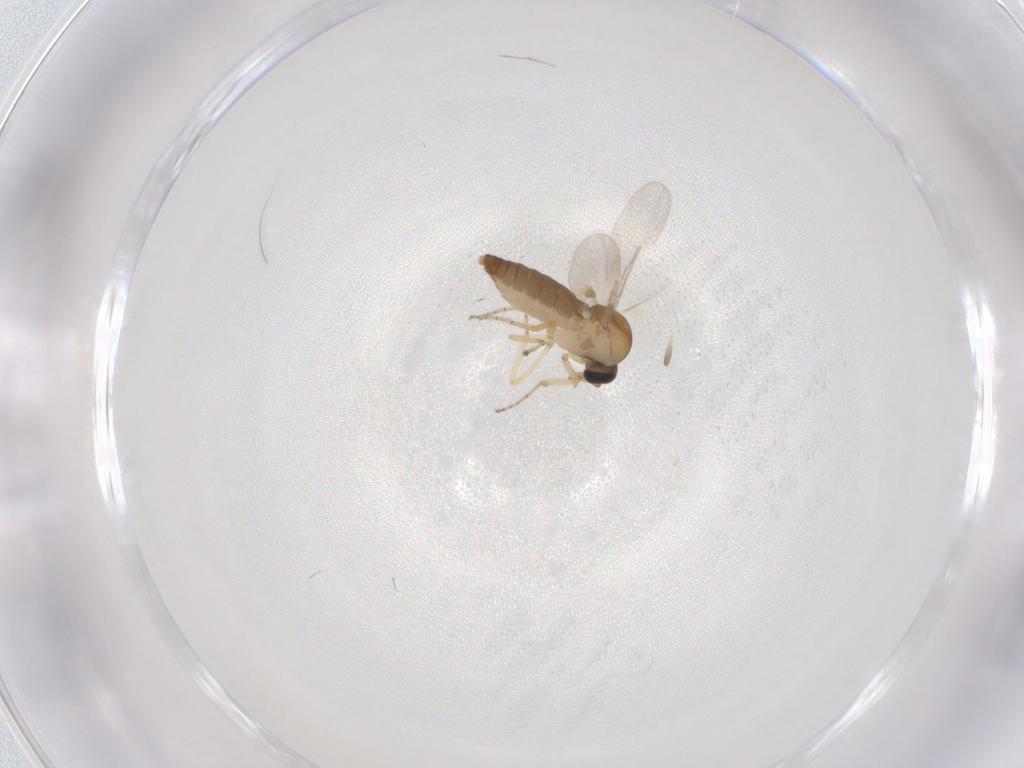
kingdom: Animalia
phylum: Arthropoda
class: Insecta
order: Diptera
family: Ceratopogonidae
